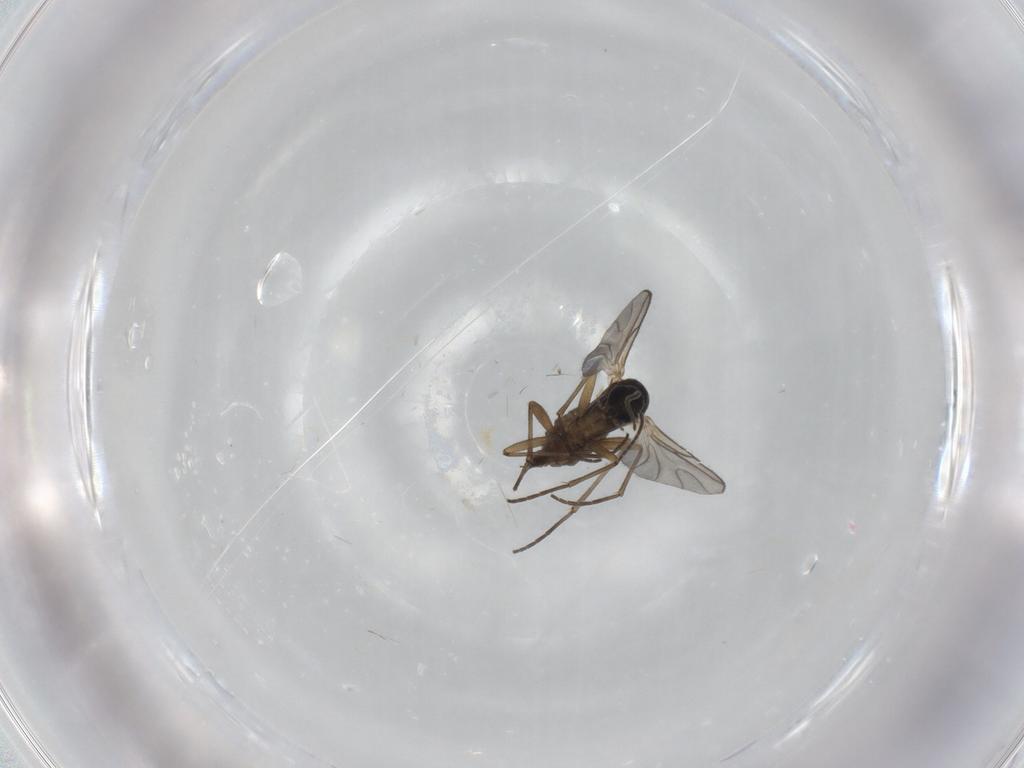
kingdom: Animalia
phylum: Arthropoda
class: Insecta
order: Diptera
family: Sciaridae
